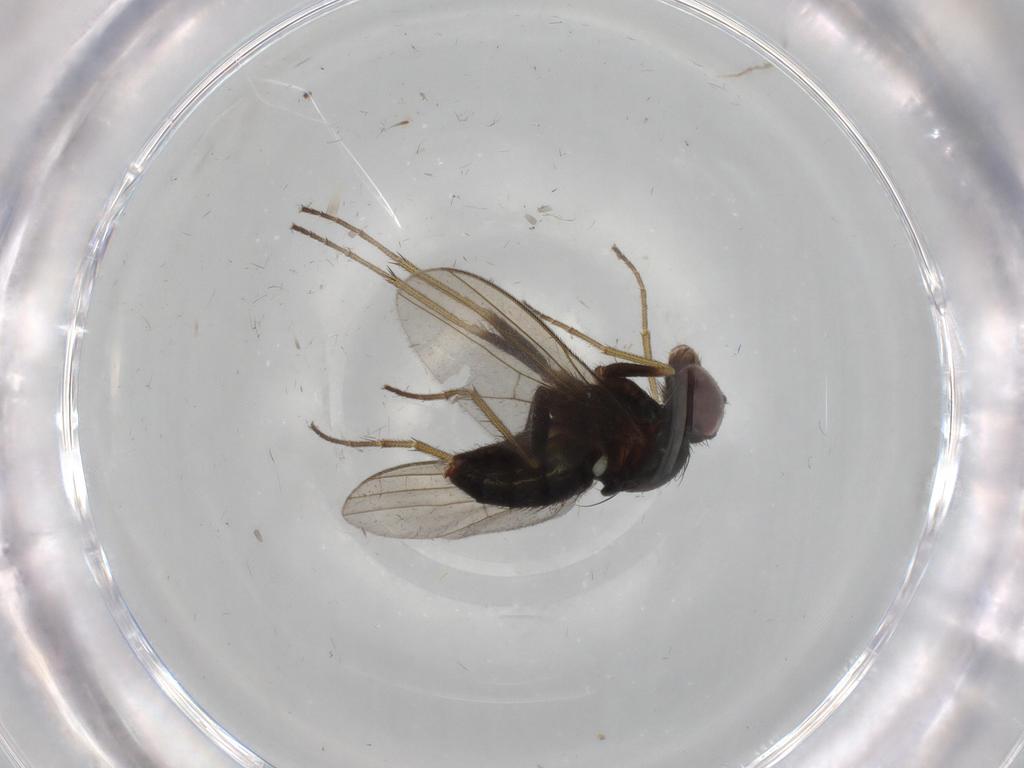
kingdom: Animalia
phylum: Arthropoda
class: Insecta
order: Diptera
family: Dolichopodidae
